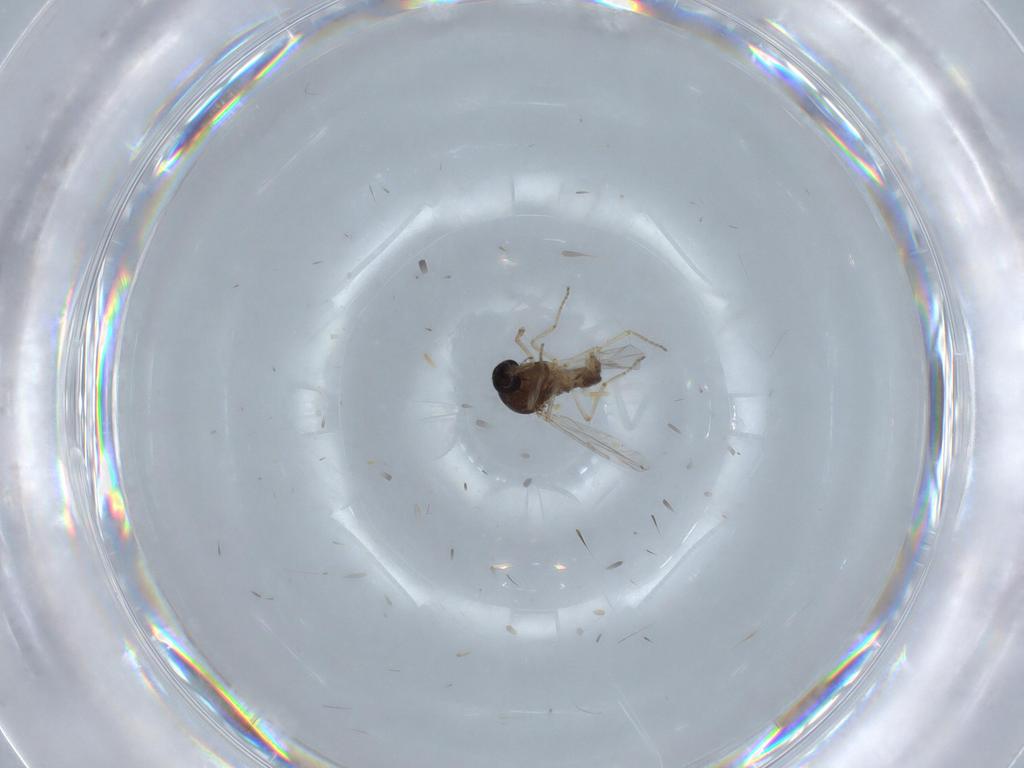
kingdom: Animalia
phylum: Arthropoda
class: Insecta
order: Diptera
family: Ceratopogonidae
